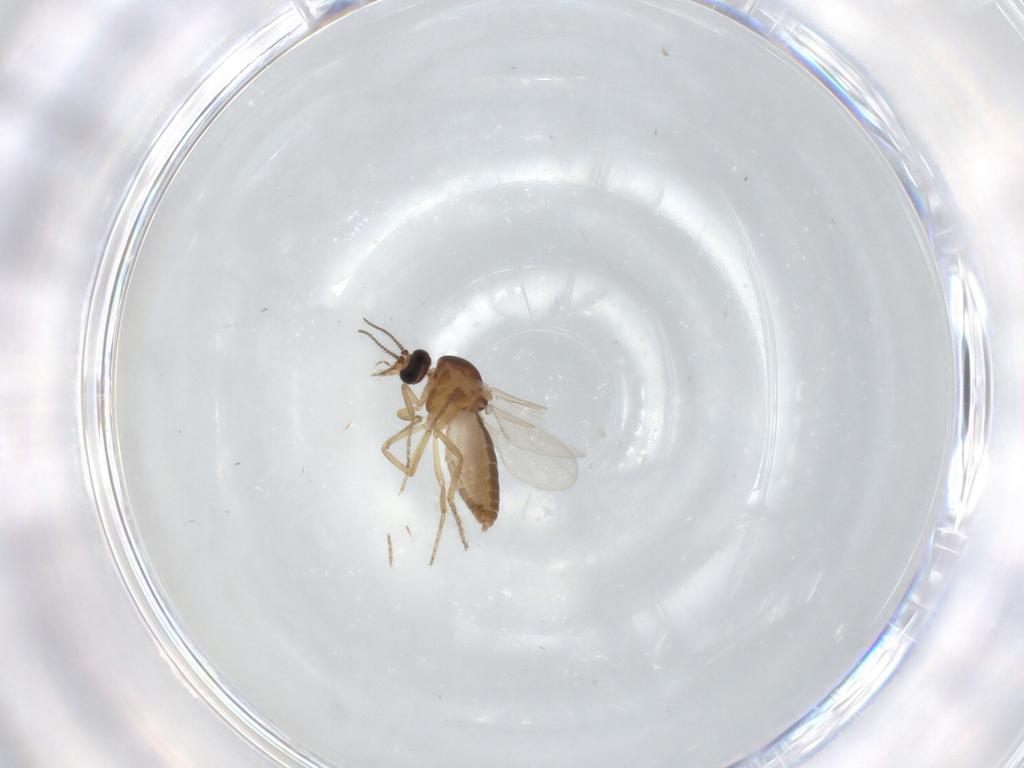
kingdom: Animalia
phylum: Arthropoda
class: Insecta
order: Diptera
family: Ceratopogonidae
